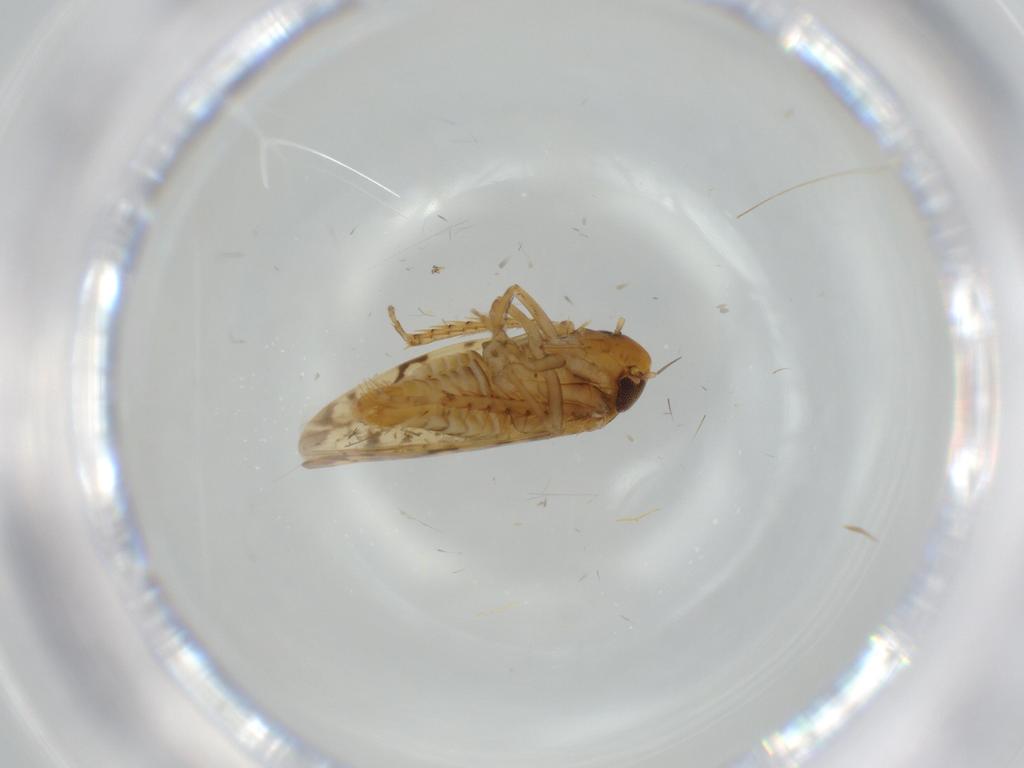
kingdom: Animalia
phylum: Arthropoda
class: Insecta
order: Hemiptera
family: Cicadellidae
